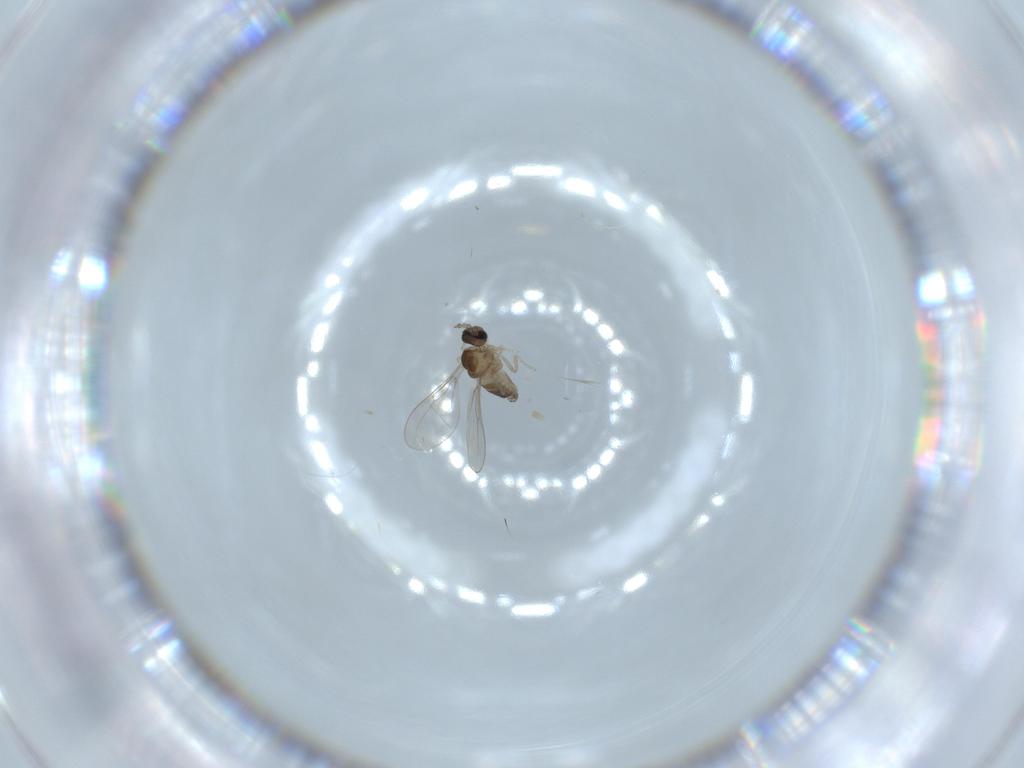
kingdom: Animalia
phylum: Arthropoda
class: Insecta
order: Diptera
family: Cecidomyiidae
